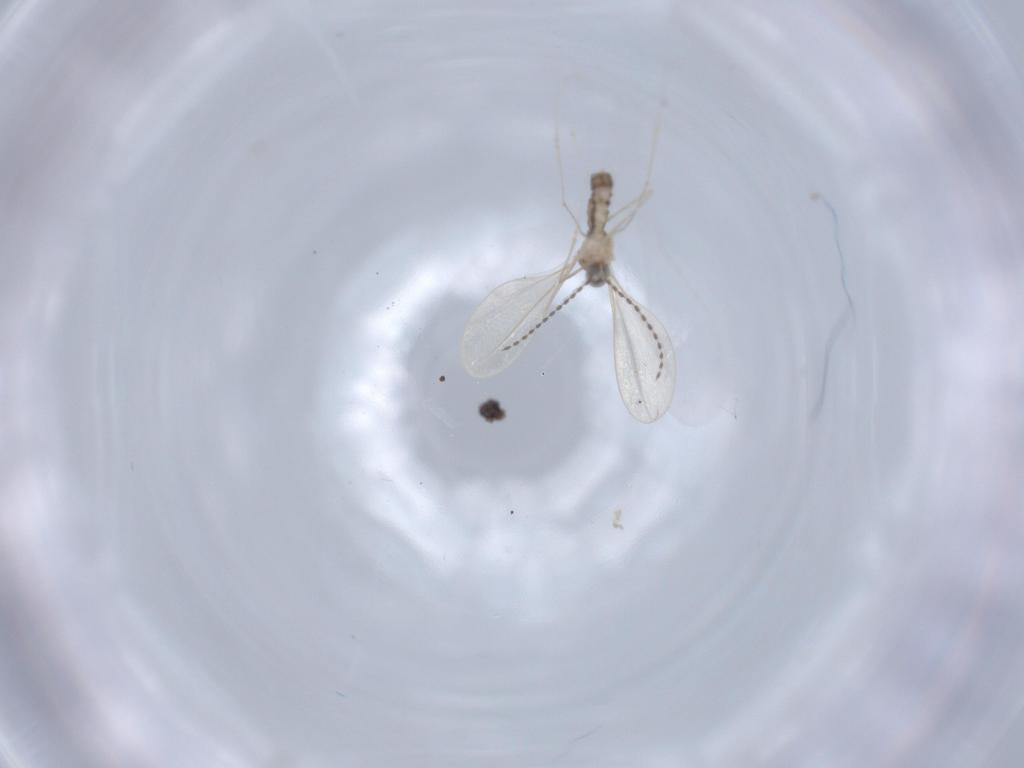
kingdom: Animalia
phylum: Arthropoda
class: Insecta
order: Diptera
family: Cecidomyiidae
